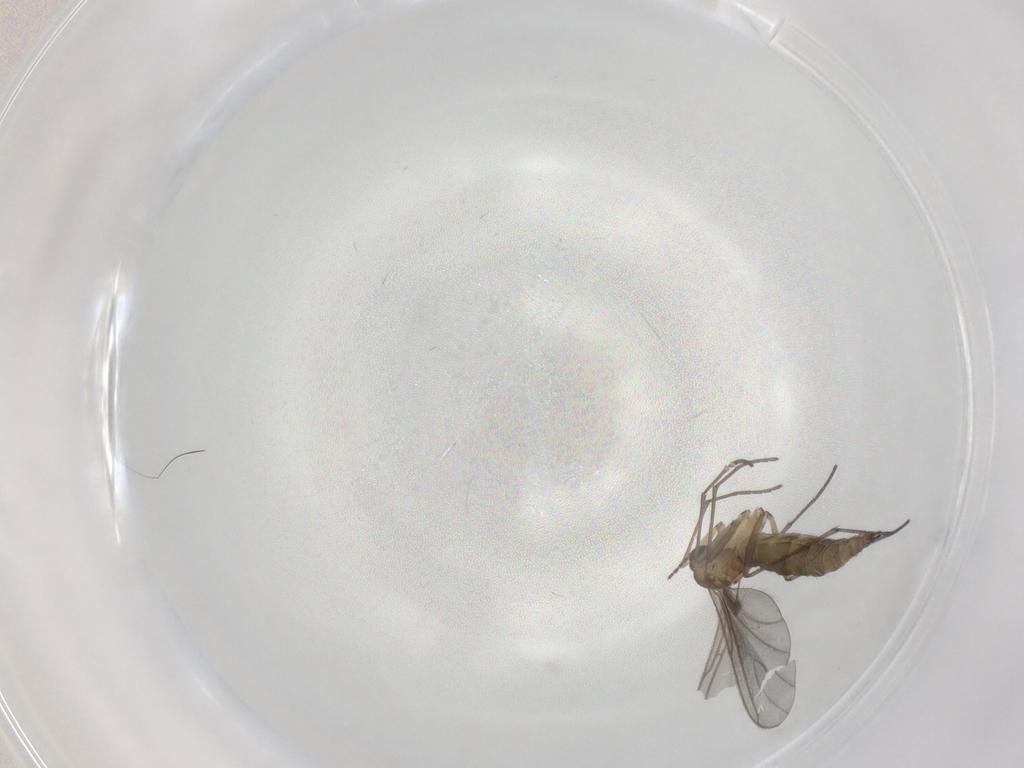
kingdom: Animalia
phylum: Arthropoda
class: Insecta
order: Diptera
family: Sciaridae
